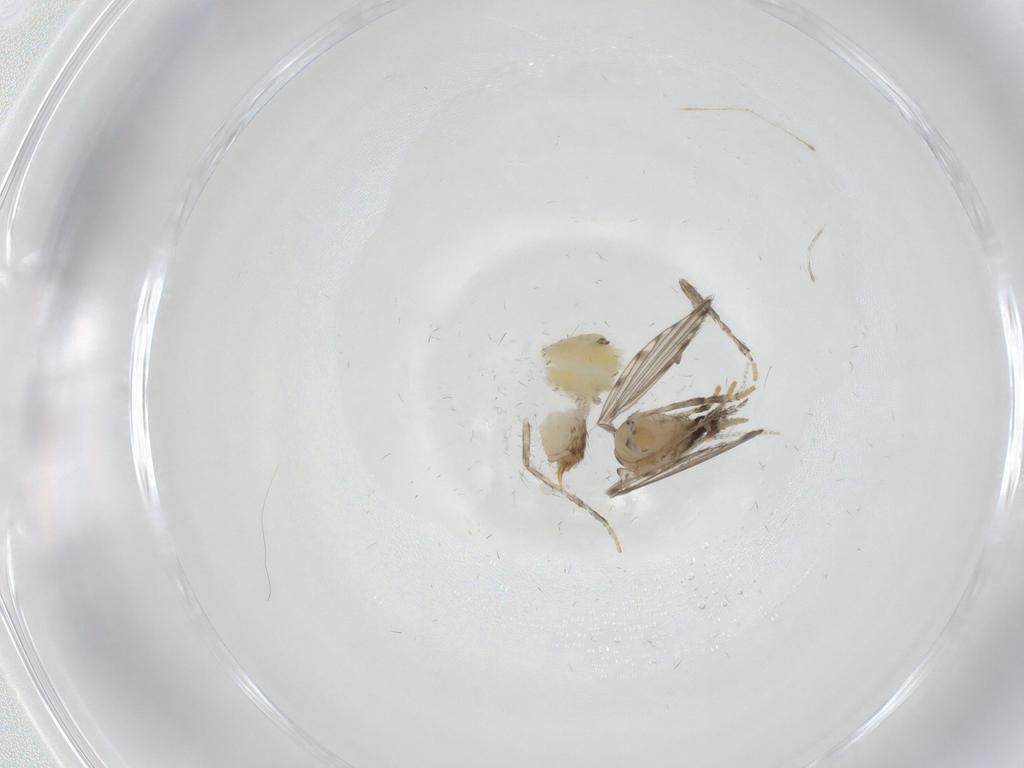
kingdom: Animalia
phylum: Arthropoda
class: Insecta
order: Diptera
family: Psychodidae
